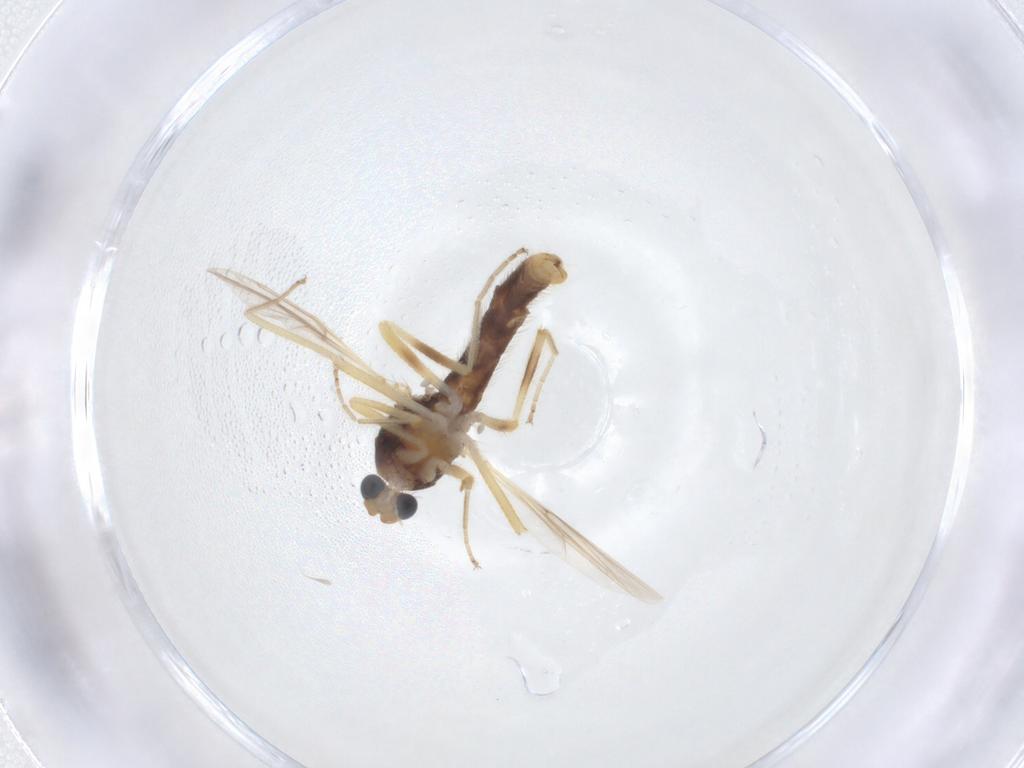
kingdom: Animalia
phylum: Arthropoda
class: Insecta
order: Diptera
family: Ceratopogonidae
